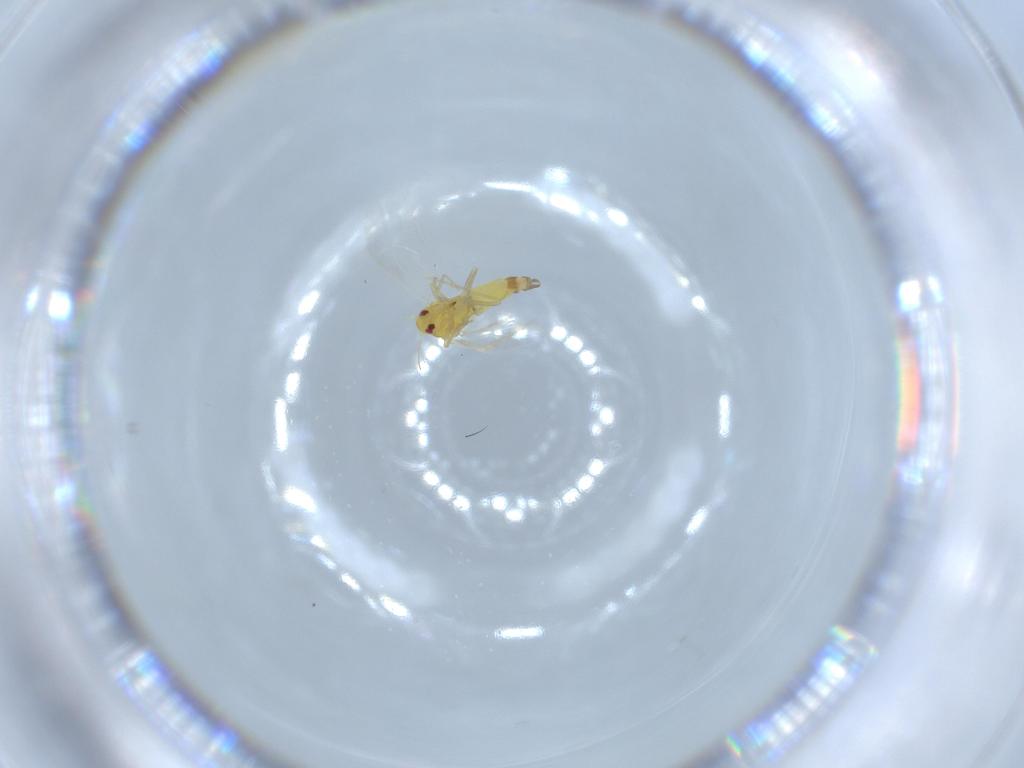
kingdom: Animalia
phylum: Arthropoda
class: Insecta
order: Hemiptera
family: Aleyrodidae
